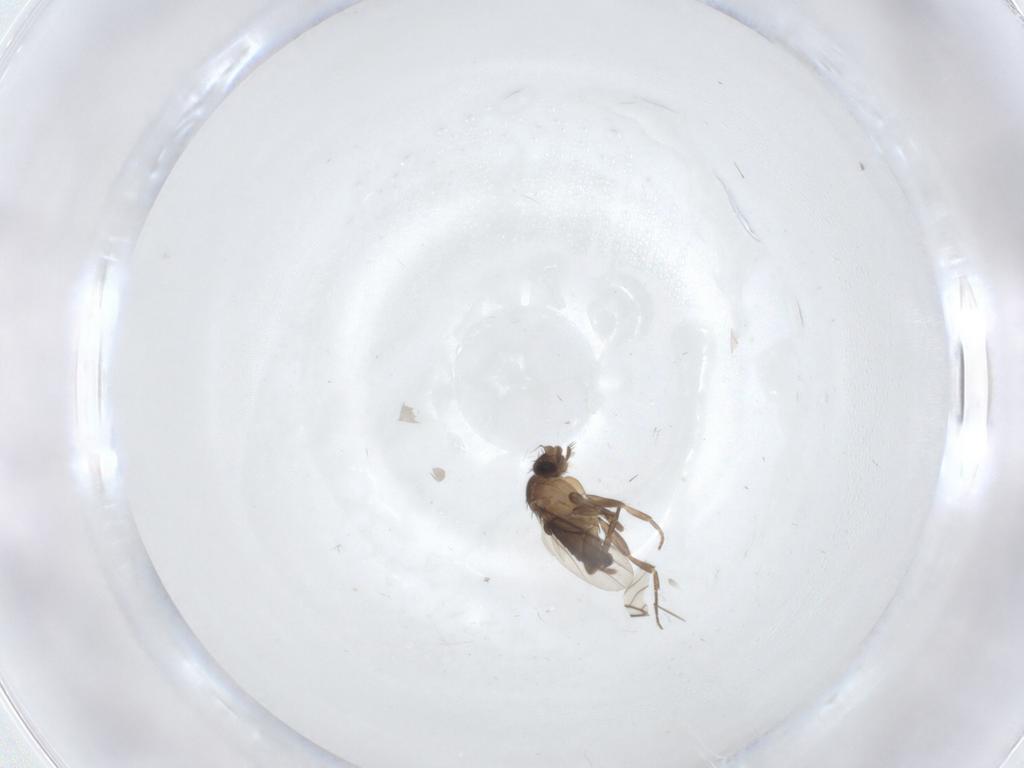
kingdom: Animalia
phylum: Arthropoda
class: Insecta
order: Diptera
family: Phoridae
